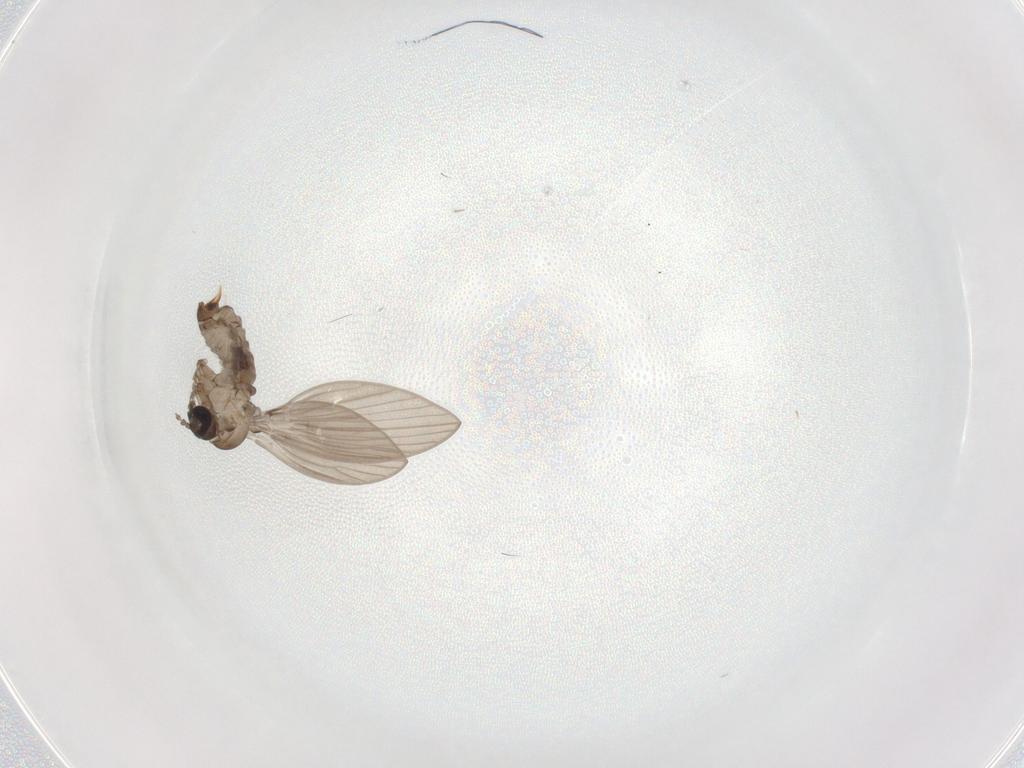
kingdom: Animalia
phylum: Arthropoda
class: Insecta
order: Diptera
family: Psychodidae
